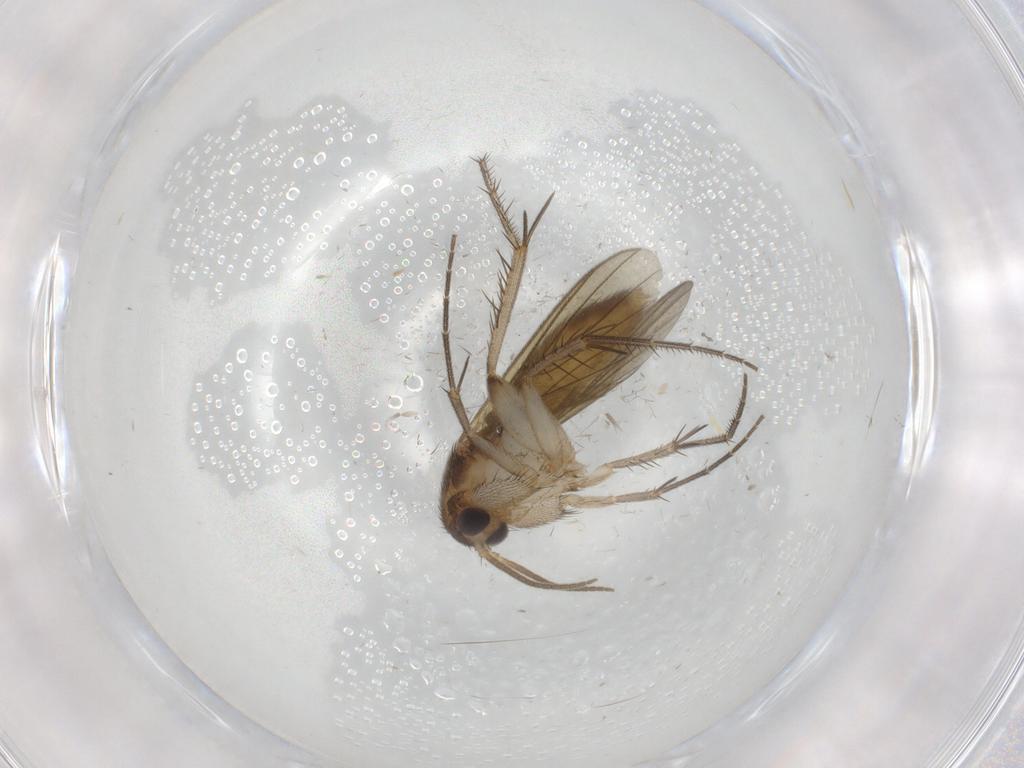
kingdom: Animalia
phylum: Arthropoda
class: Insecta
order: Diptera
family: Mycetophilidae
